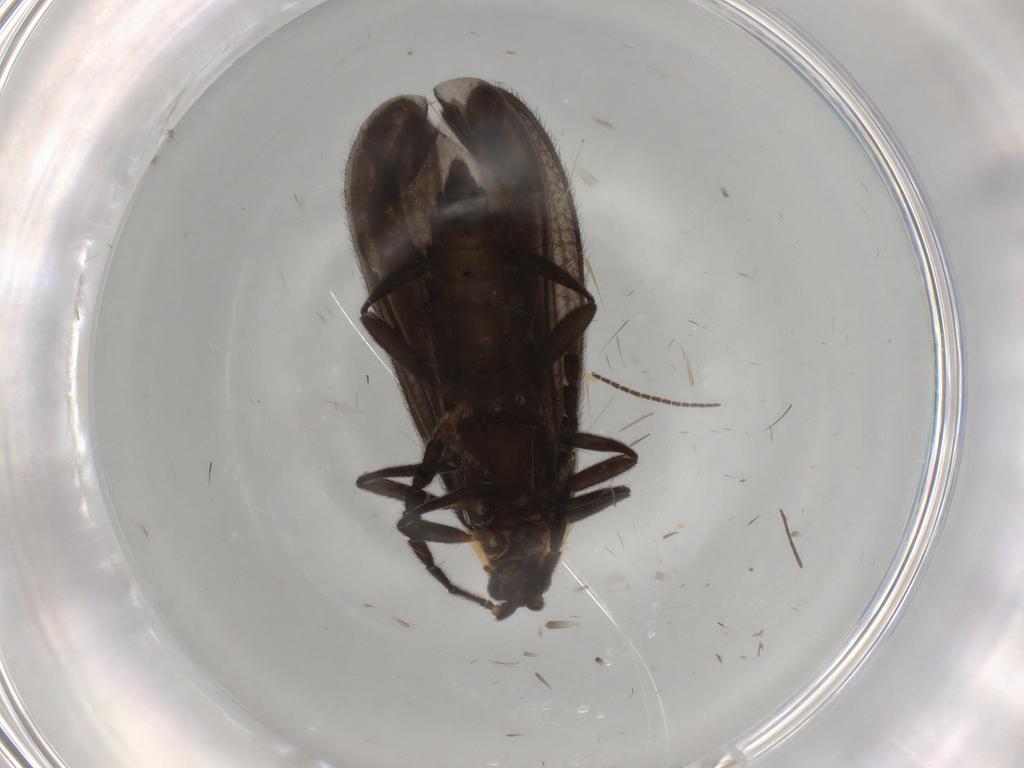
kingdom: Animalia
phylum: Arthropoda
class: Insecta
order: Coleoptera
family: Lycidae
